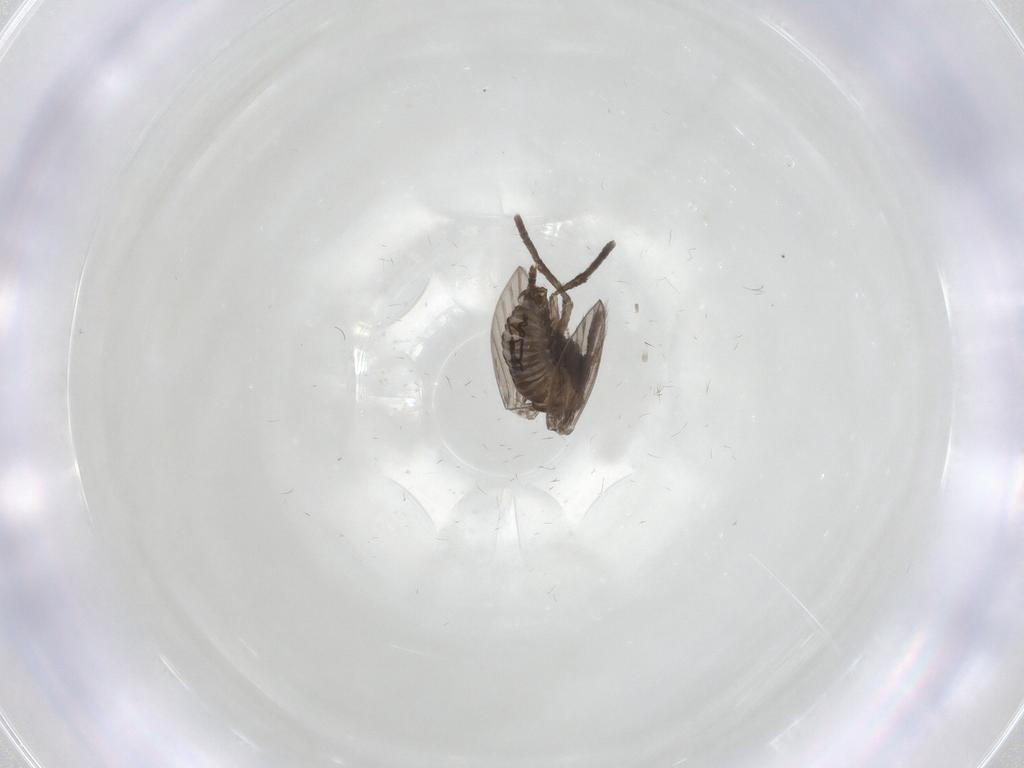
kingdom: Animalia
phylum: Arthropoda
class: Insecta
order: Diptera
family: Psychodidae
